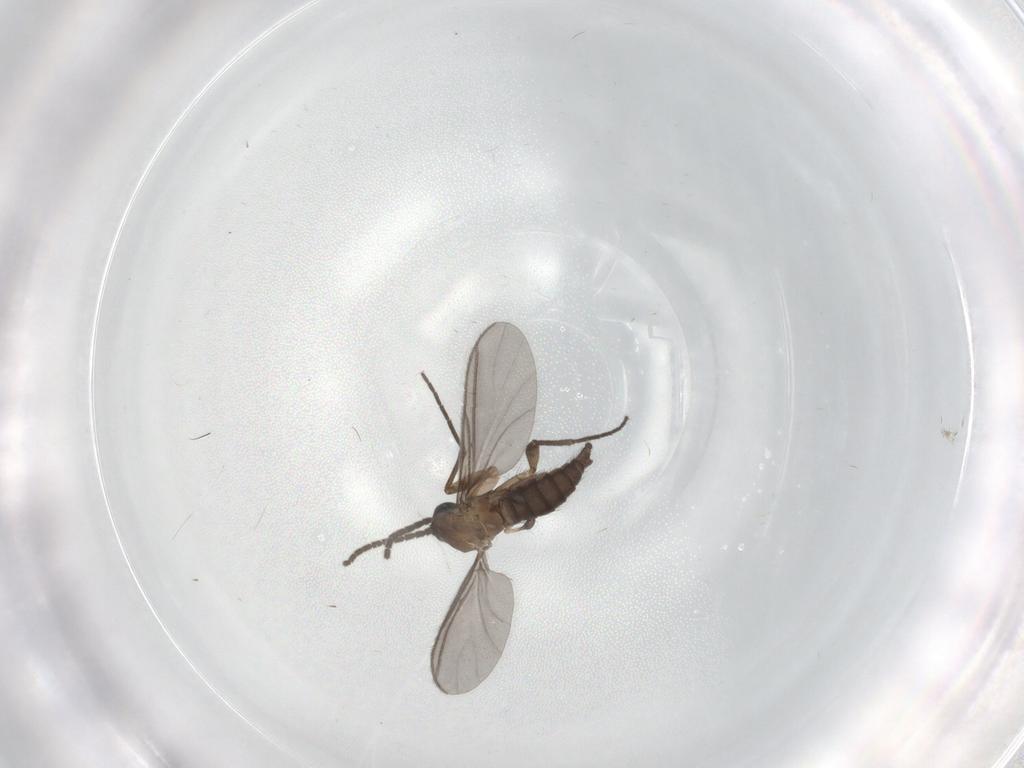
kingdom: Animalia
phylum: Arthropoda
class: Insecta
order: Diptera
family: Sciaridae
